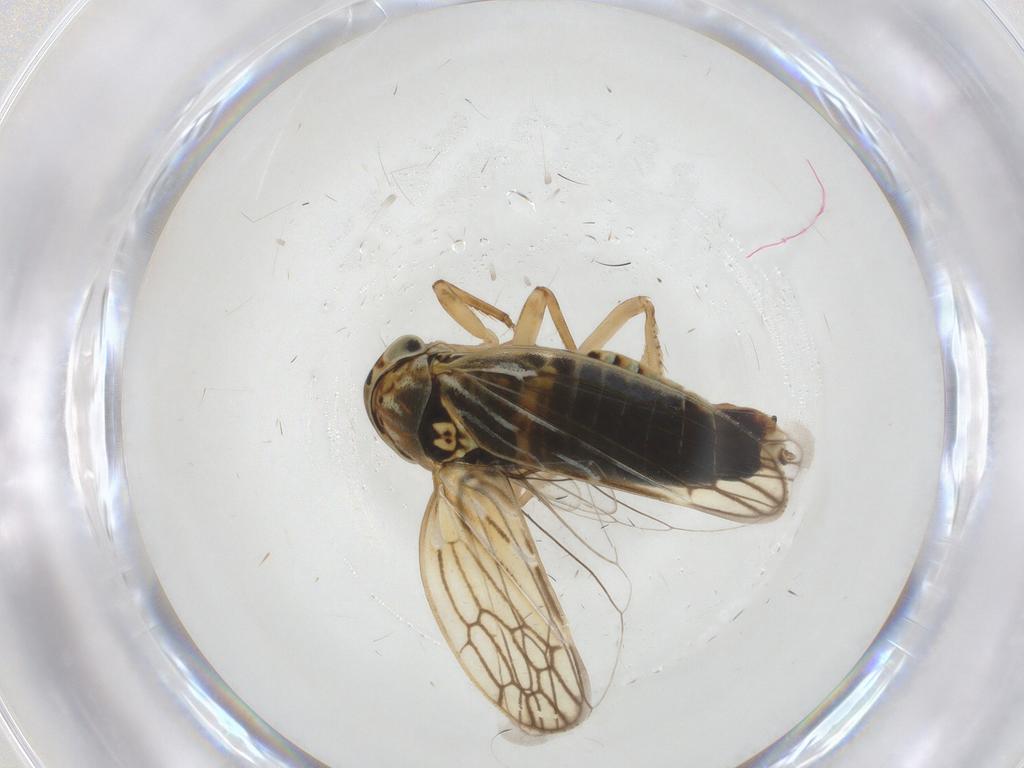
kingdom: Animalia
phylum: Arthropoda
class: Insecta
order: Hemiptera
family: Cicadellidae
